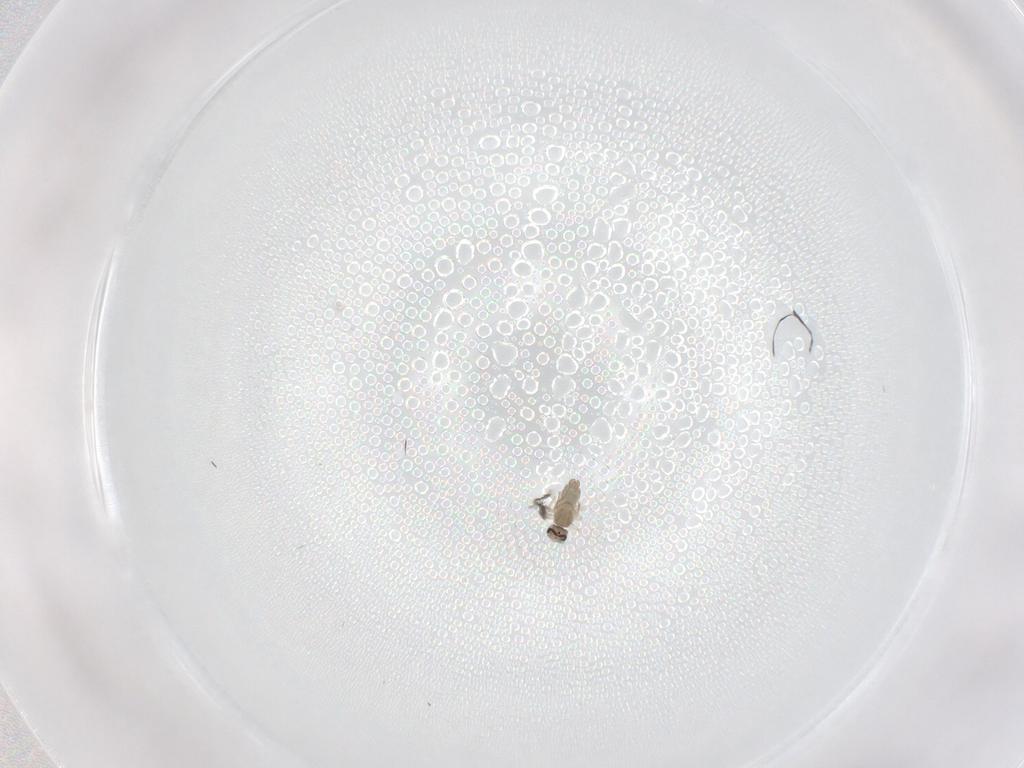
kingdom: Animalia
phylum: Arthropoda
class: Insecta
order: Diptera
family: Cecidomyiidae
